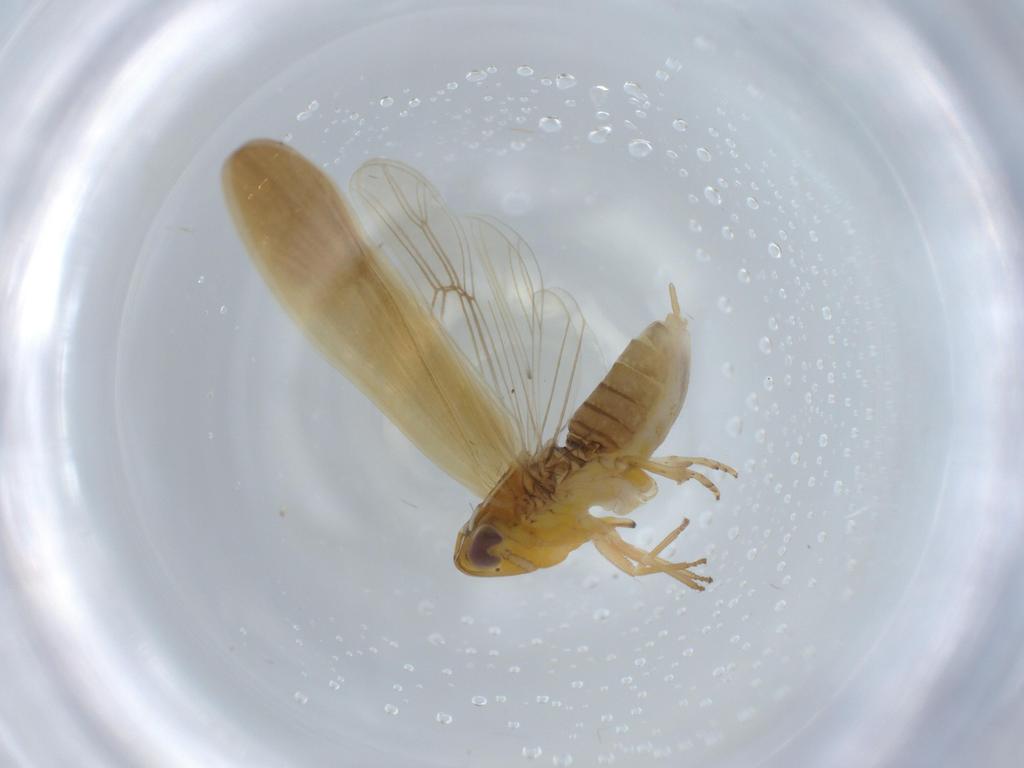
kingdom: Animalia
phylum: Arthropoda
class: Insecta
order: Hemiptera
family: Delphacidae
